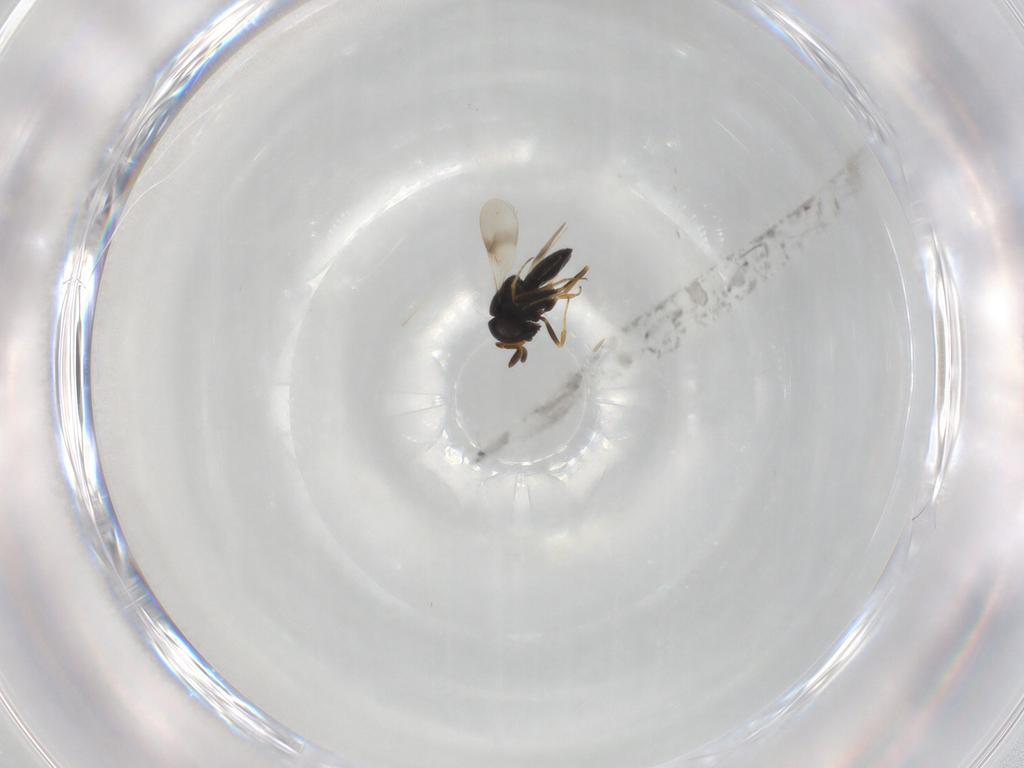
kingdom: Animalia
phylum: Arthropoda
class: Insecta
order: Hymenoptera
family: Scelionidae
